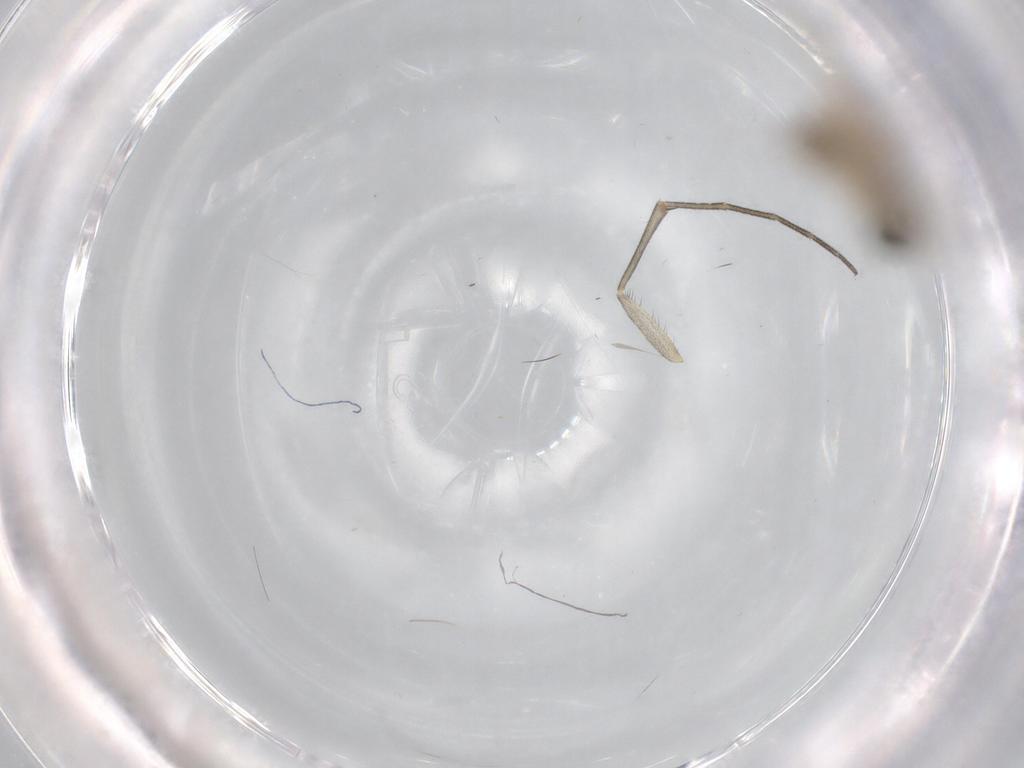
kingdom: Animalia
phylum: Arthropoda
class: Insecta
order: Diptera
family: Keroplatidae
